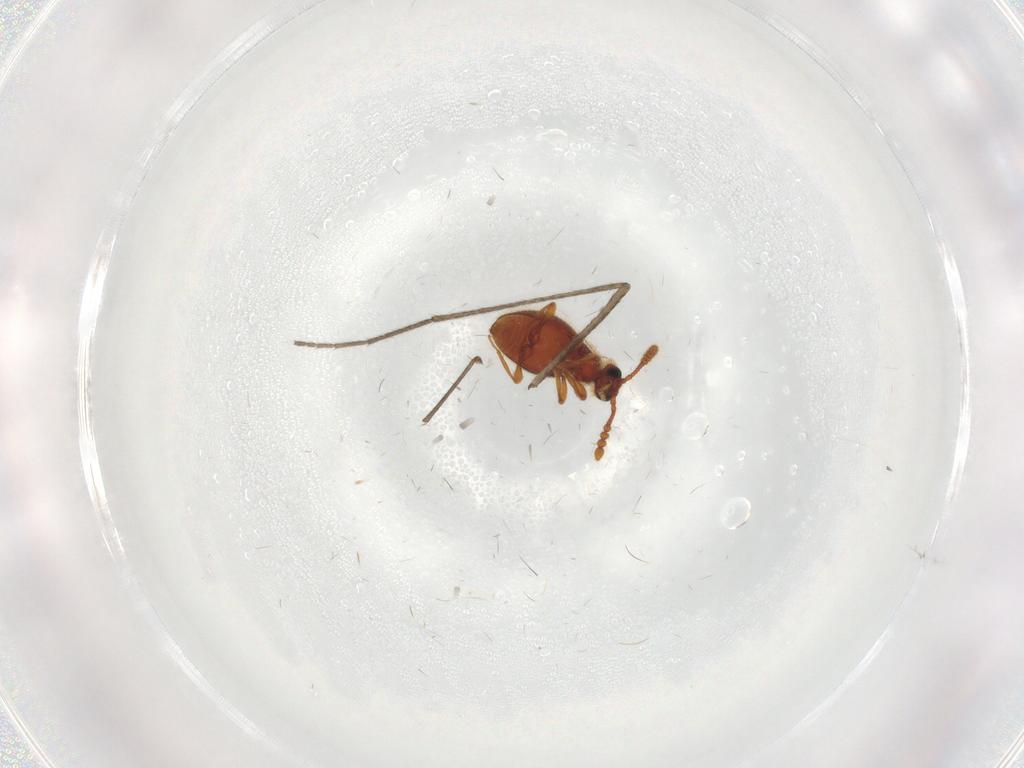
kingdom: Animalia
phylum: Arthropoda
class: Insecta
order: Coleoptera
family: Staphylinidae
